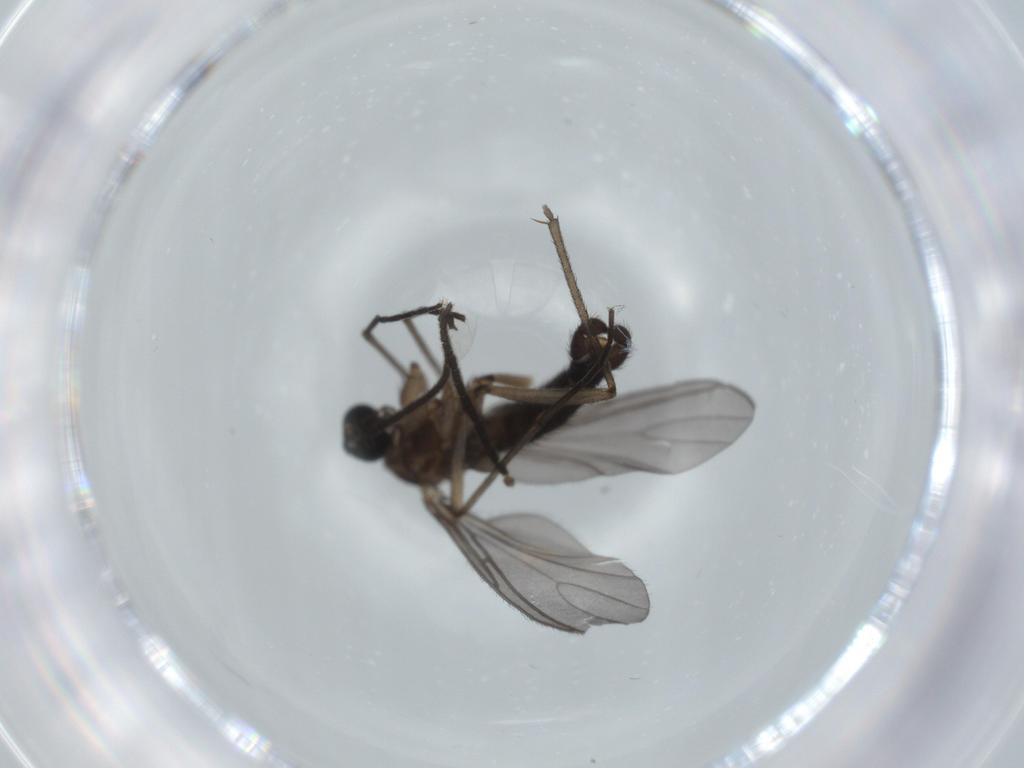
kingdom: Animalia
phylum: Arthropoda
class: Insecta
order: Diptera
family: Sciaridae
